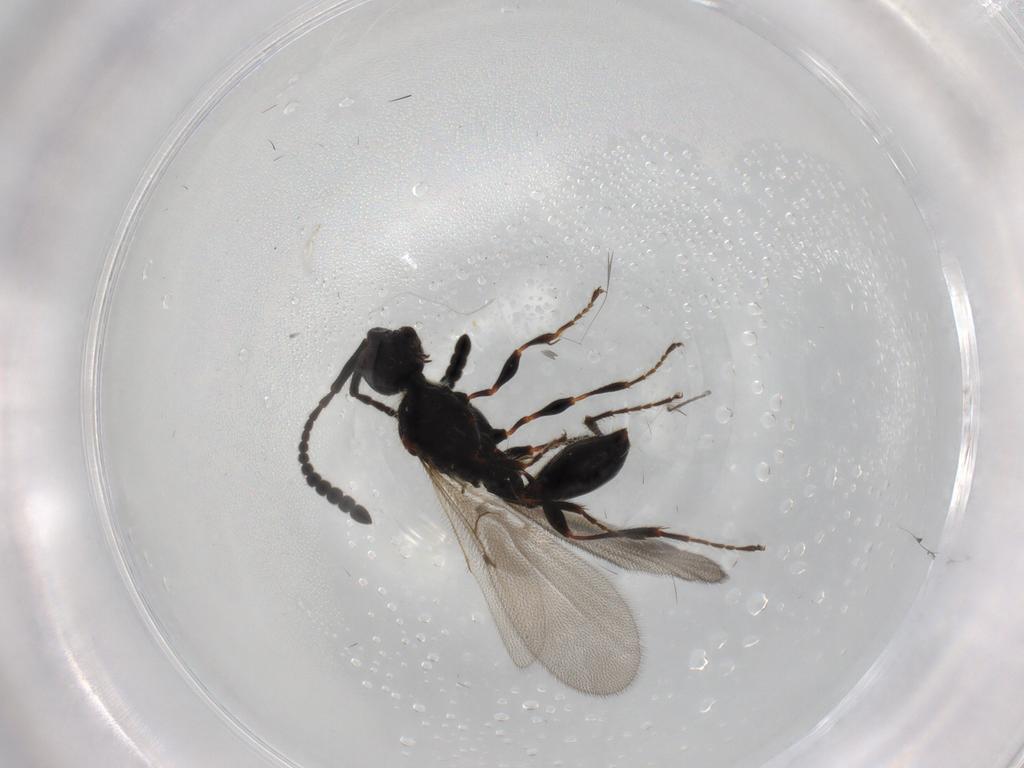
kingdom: Animalia
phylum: Arthropoda
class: Insecta
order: Hymenoptera
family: Diapriidae
